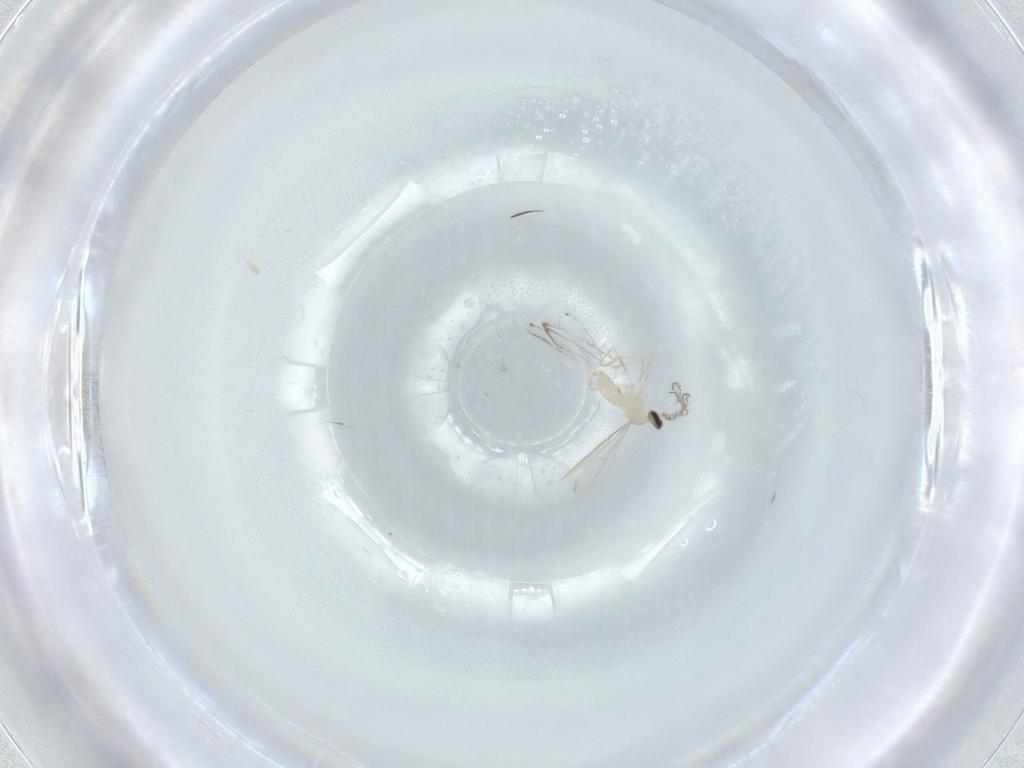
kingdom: Animalia
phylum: Arthropoda
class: Insecta
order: Diptera
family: Cecidomyiidae
